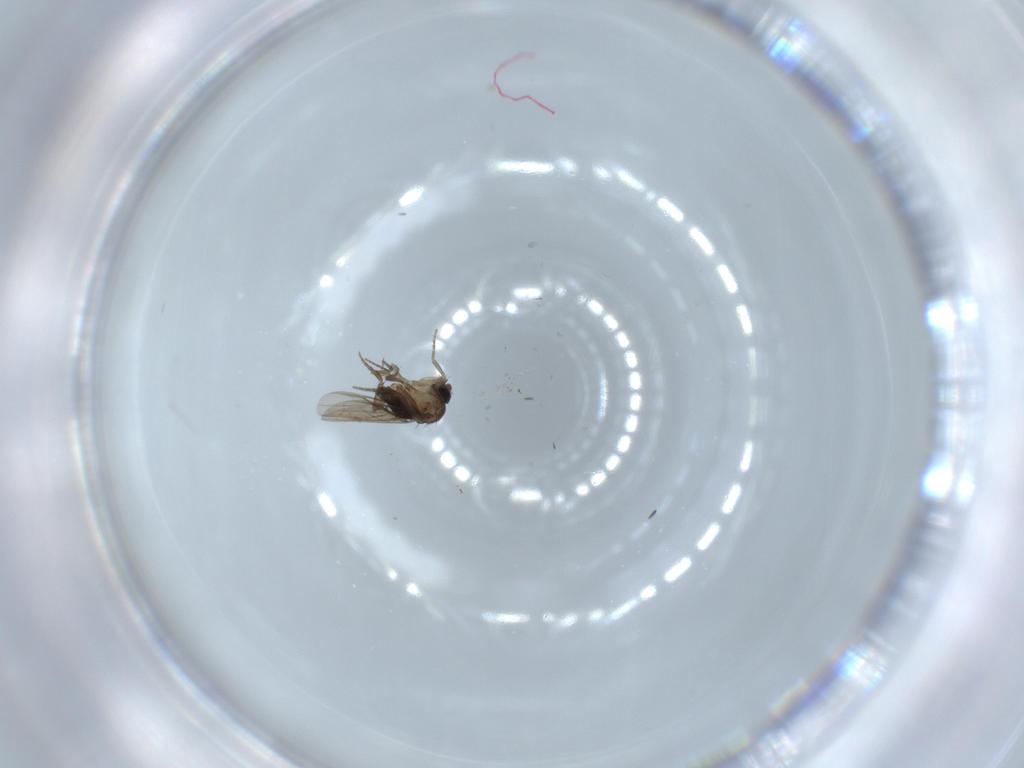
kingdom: Animalia
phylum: Arthropoda
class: Insecta
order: Diptera
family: Phoridae
